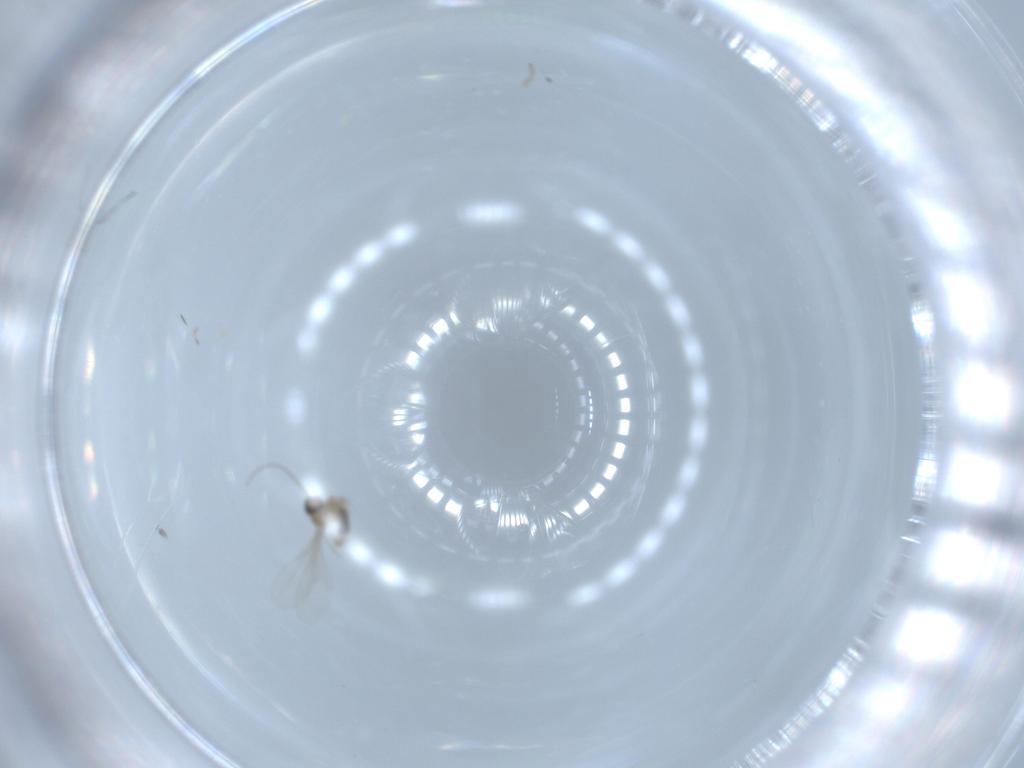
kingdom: Animalia
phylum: Arthropoda
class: Insecta
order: Diptera
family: Cecidomyiidae
